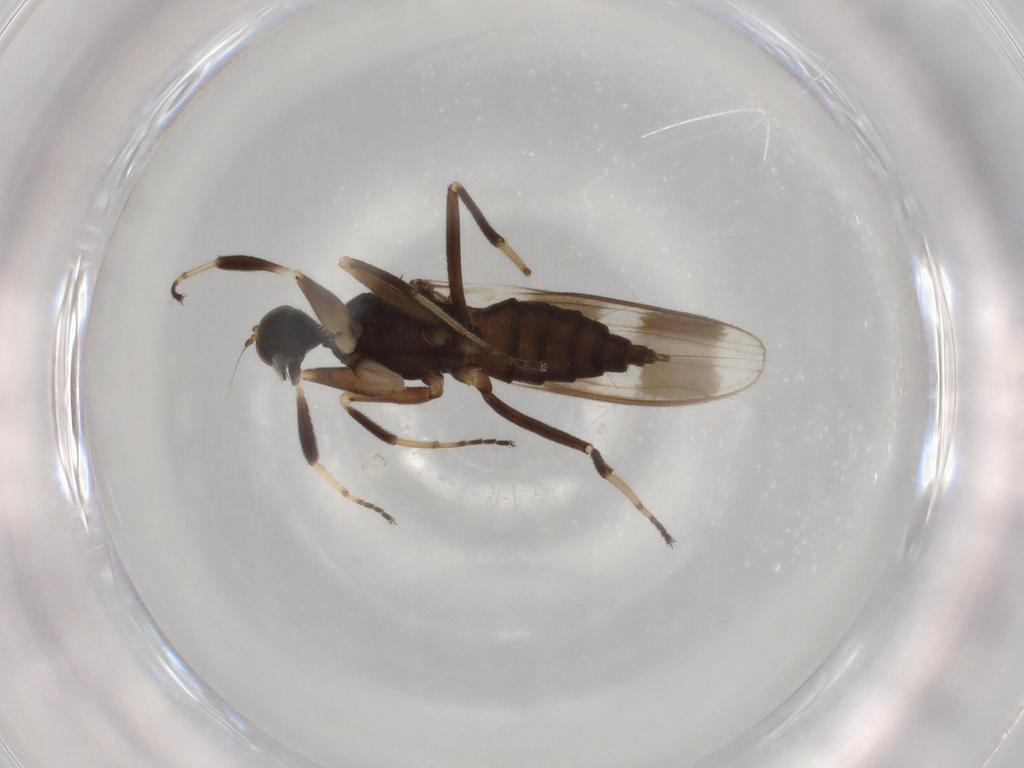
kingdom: Animalia
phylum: Arthropoda
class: Insecta
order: Diptera
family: Hybotidae
